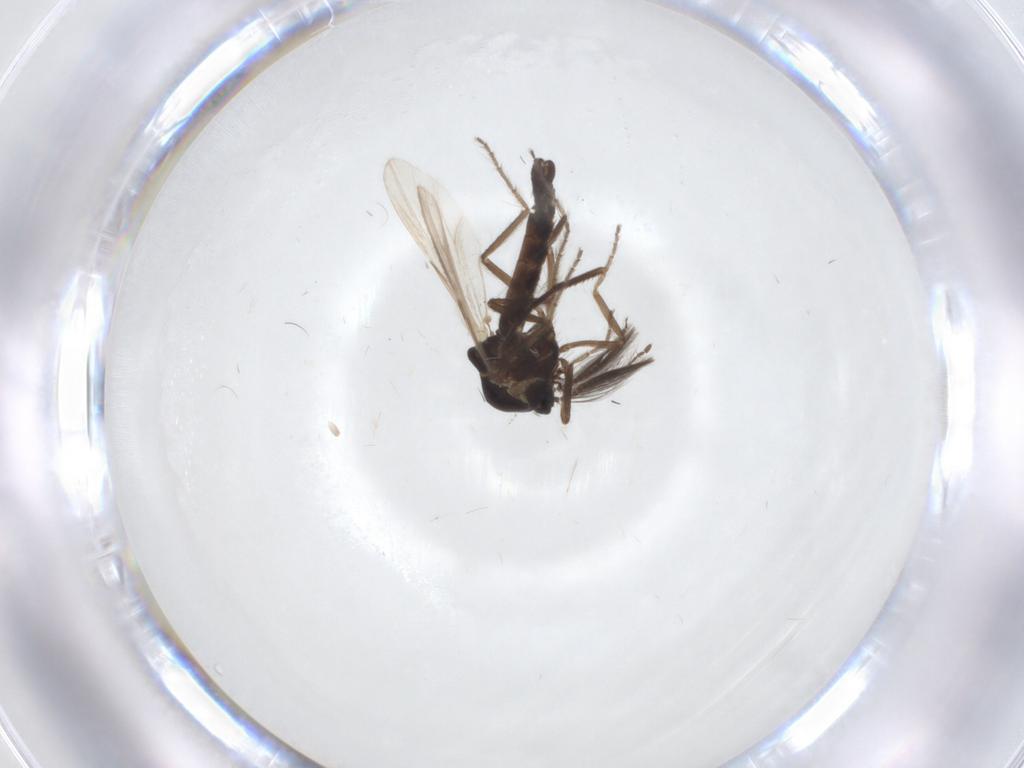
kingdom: Animalia
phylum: Arthropoda
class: Insecta
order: Diptera
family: Ceratopogonidae
